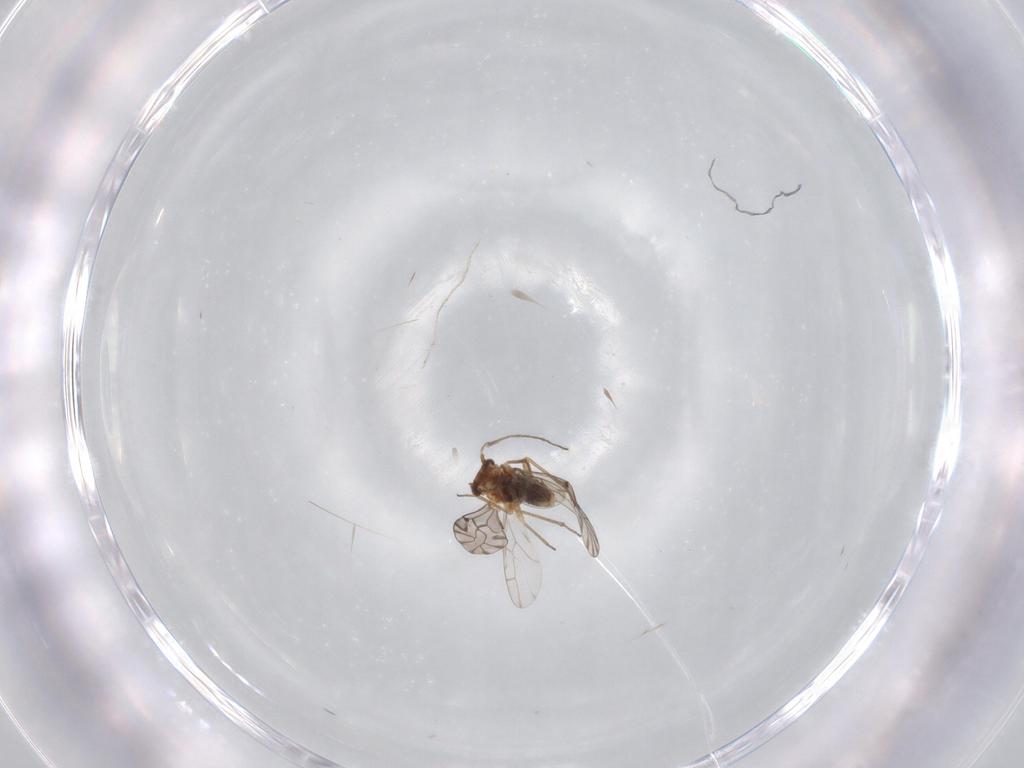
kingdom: Animalia
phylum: Arthropoda
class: Insecta
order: Psocodea
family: Lachesillidae
